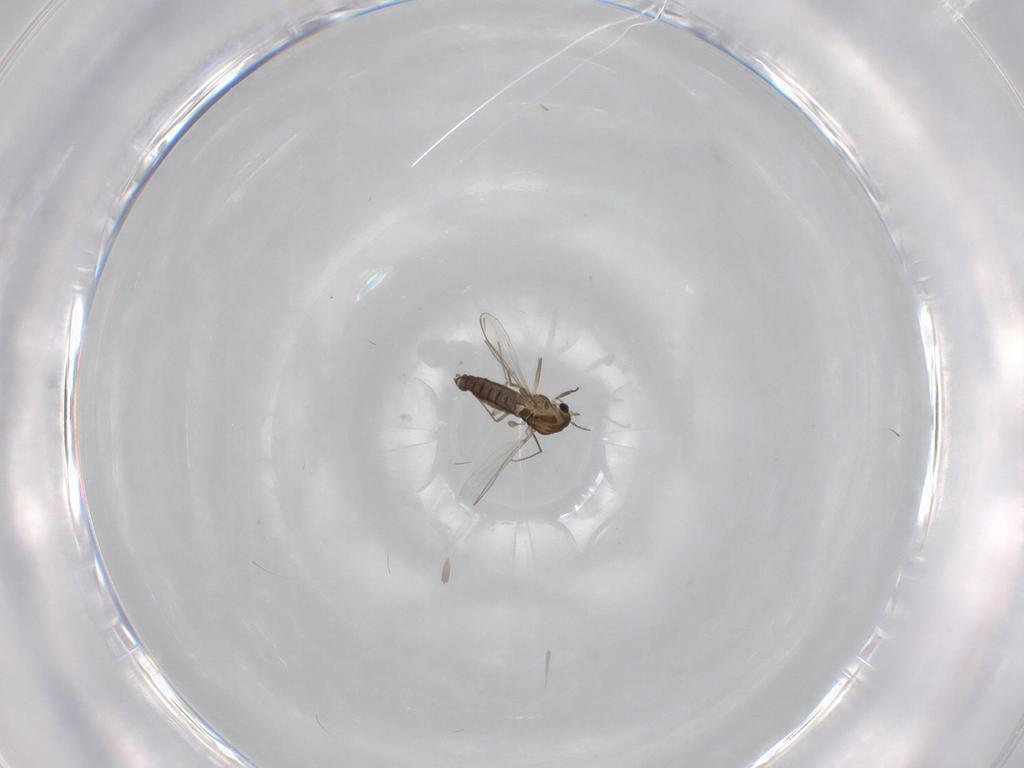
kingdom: Animalia
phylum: Arthropoda
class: Insecta
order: Diptera
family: Chironomidae
